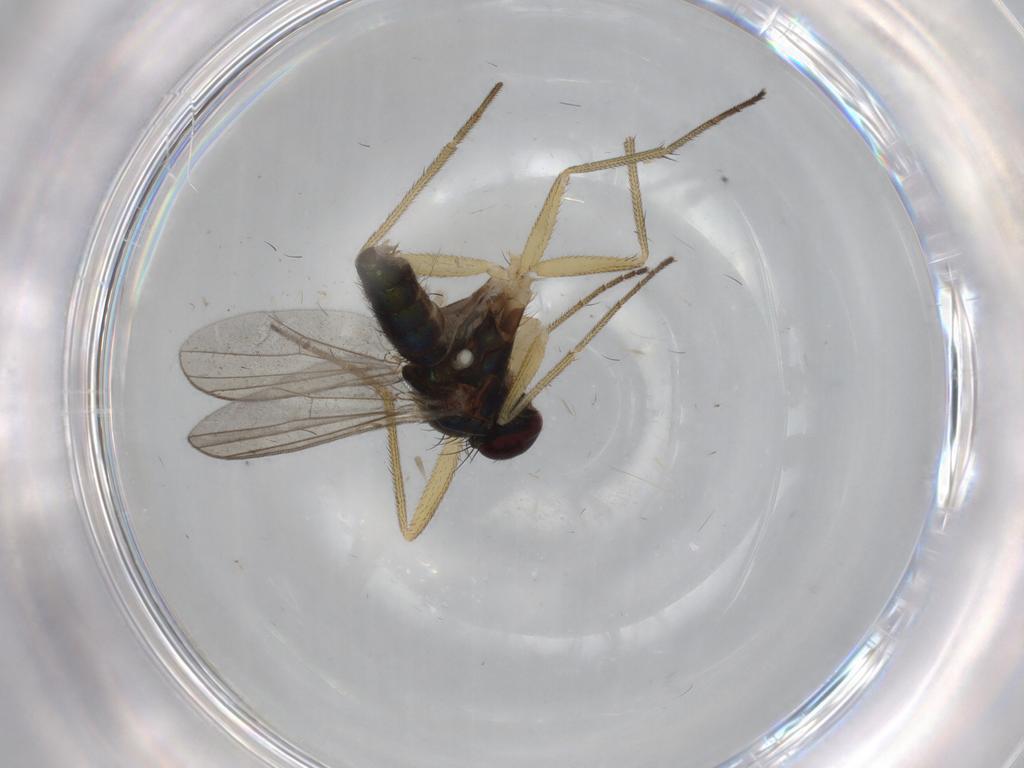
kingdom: Animalia
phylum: Arthropoda
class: Insecta
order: Diptera
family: Dolichopodidae
